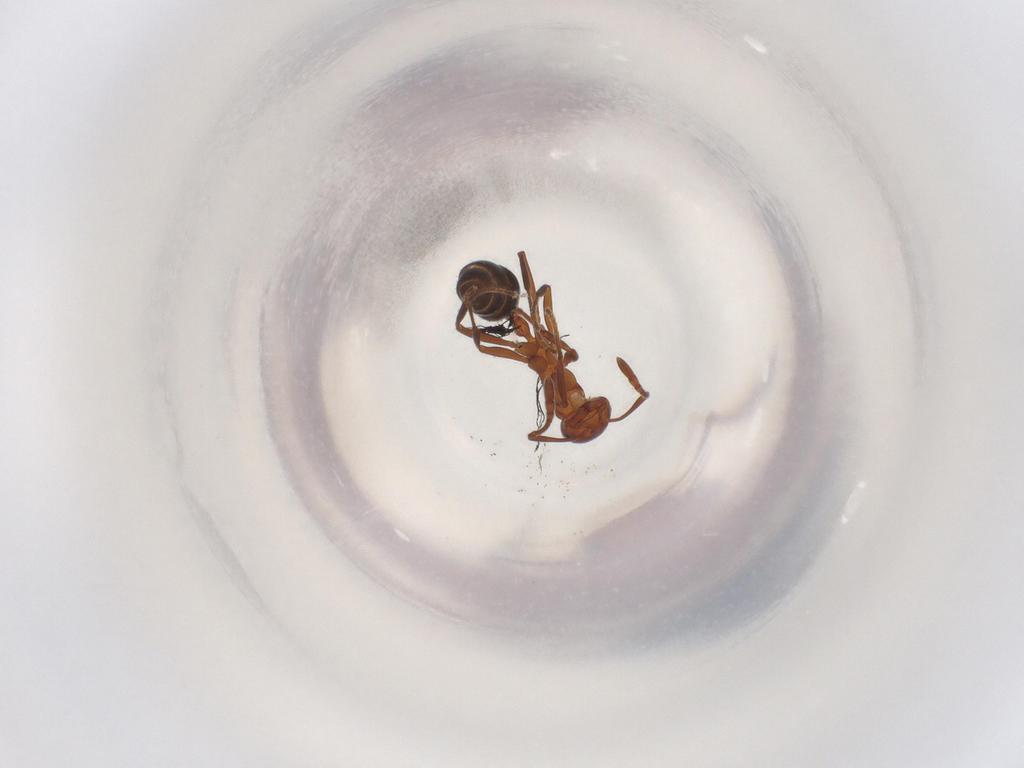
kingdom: Animalia
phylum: Arthropoda
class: Insecta
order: Hymenoptera
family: Formicidae
